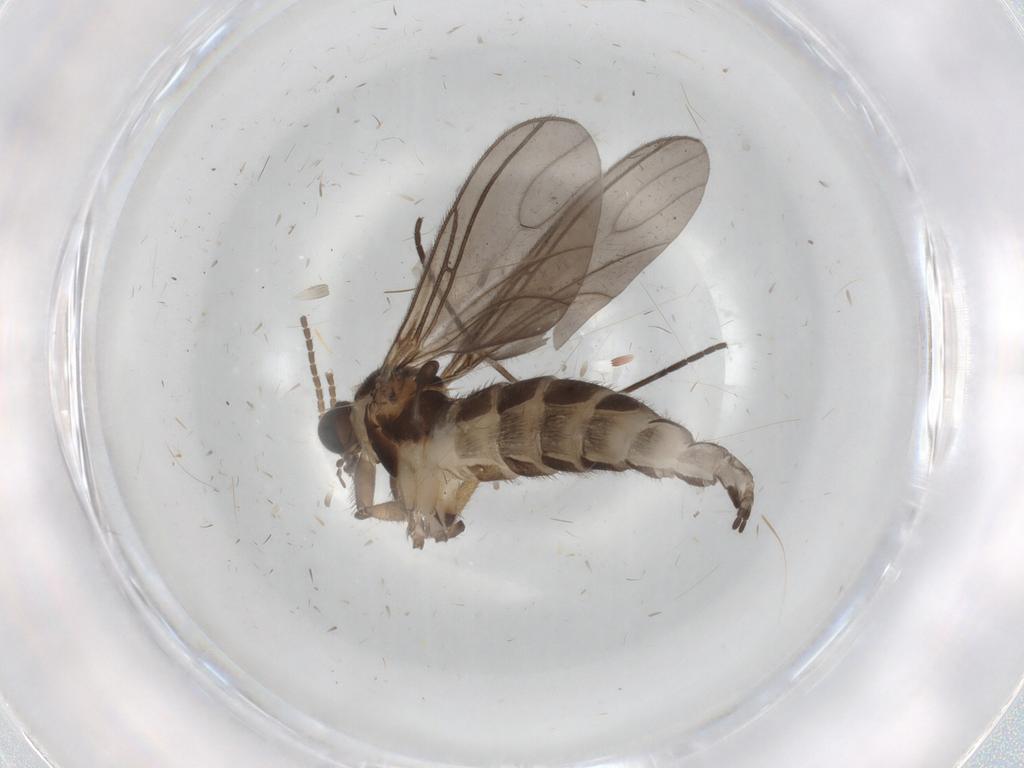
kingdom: Animalia
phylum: Arthropoda
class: Insecta
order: Diptera
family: Sciaridae
